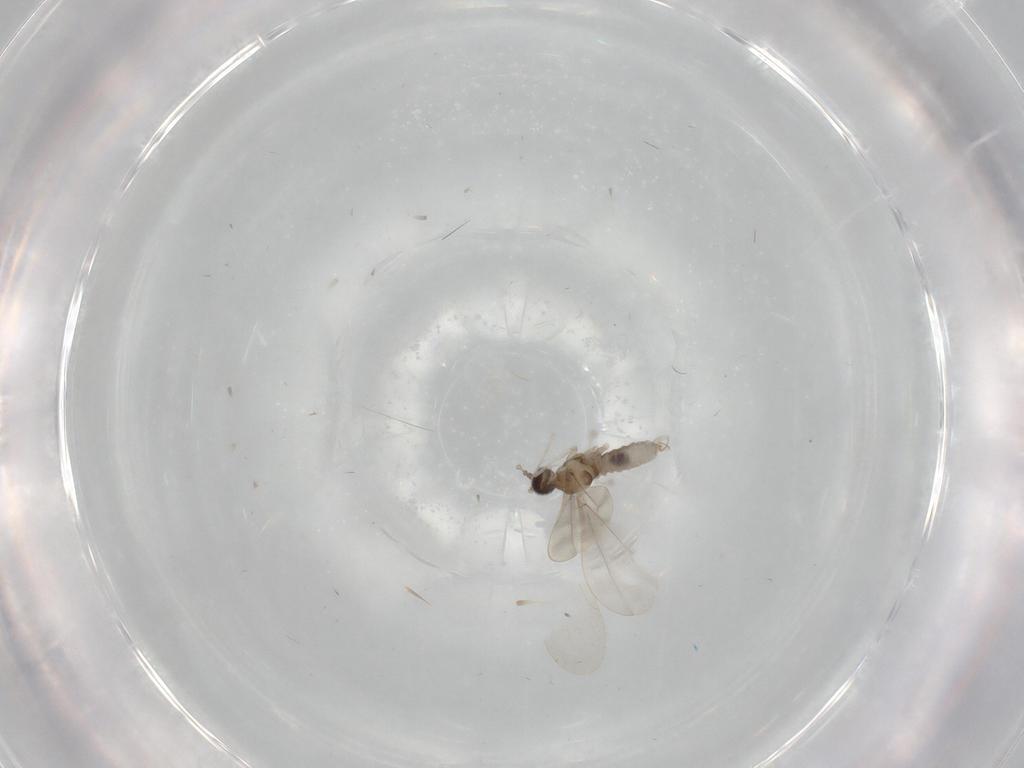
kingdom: Animalia
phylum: Arthropoda
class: Insecta
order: Diptera
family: Cecidomyiidae
